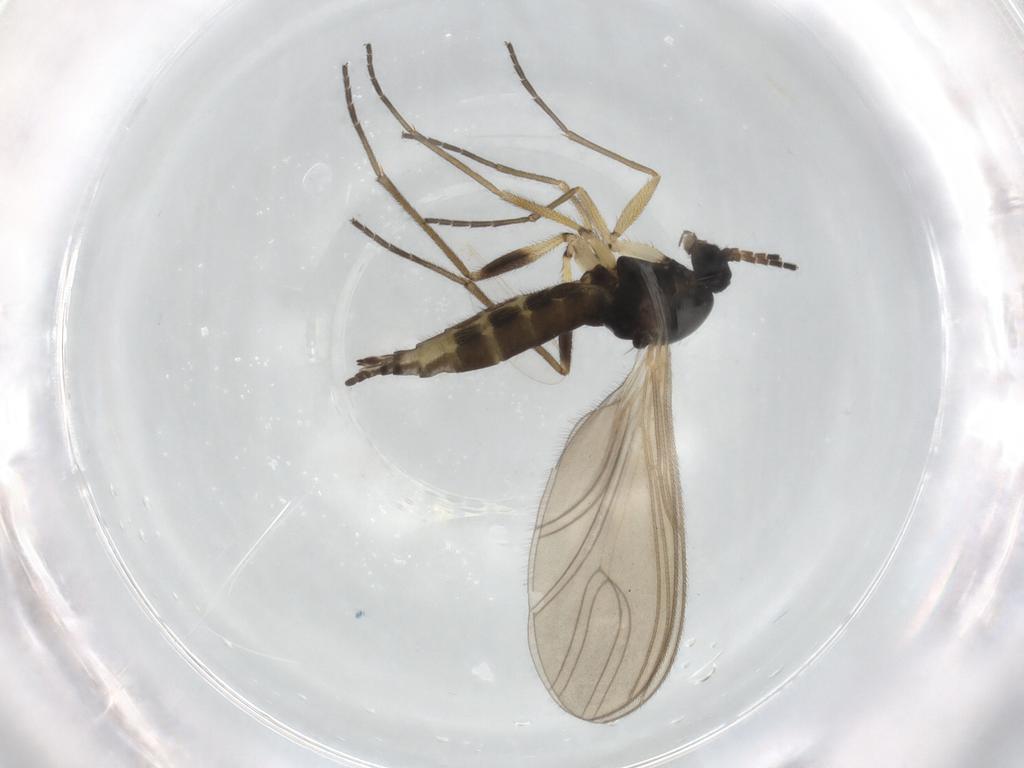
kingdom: Animalia
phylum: Arthropoda
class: Insecta
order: Diptera
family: Sciaridae
